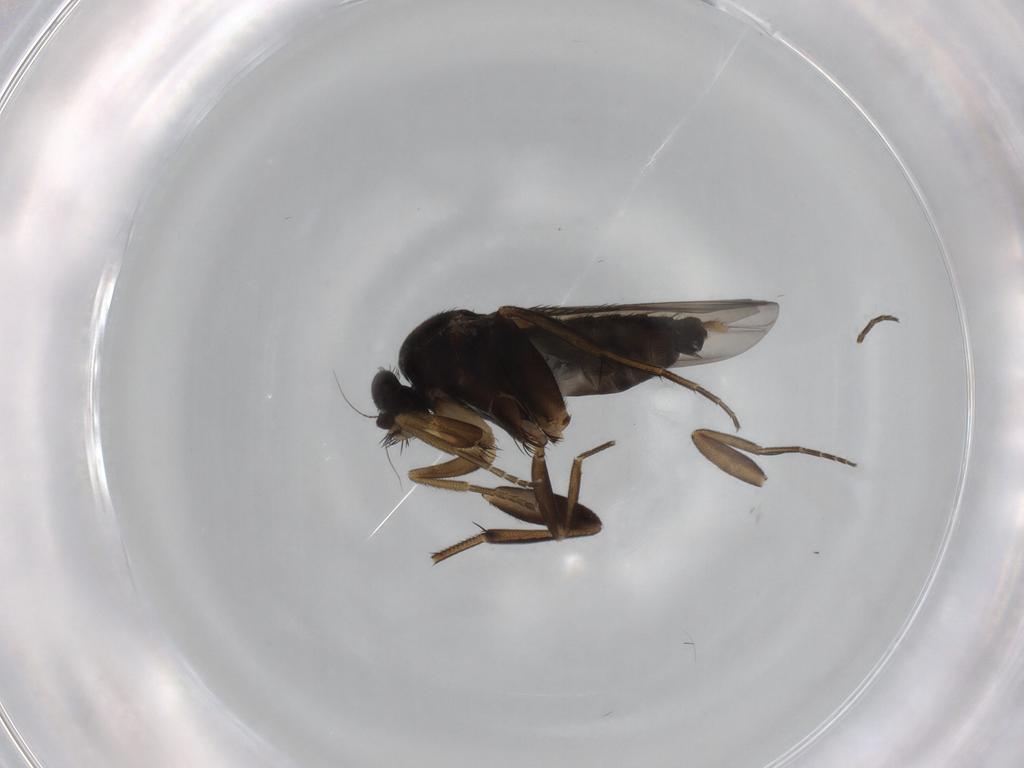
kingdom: Animalia
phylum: Arthropoda
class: Insecta
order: Diptera
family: Phoridae
